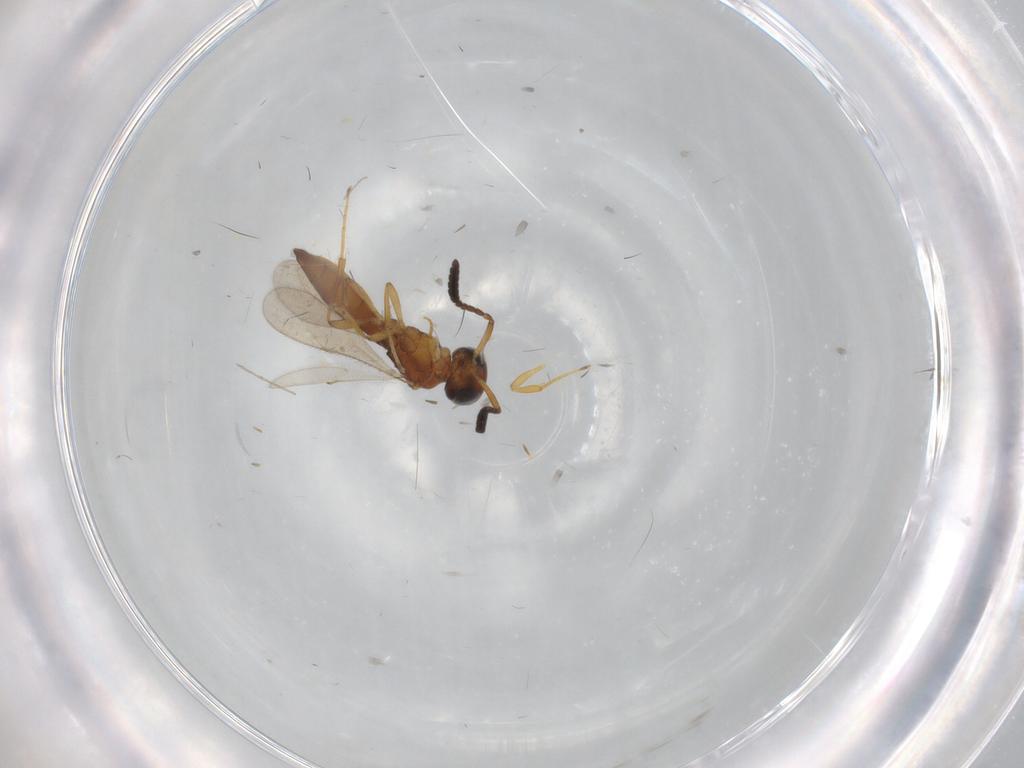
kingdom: Animalia
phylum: Arthropoda
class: Insecta
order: Hymenoptera
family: Scelionidae
